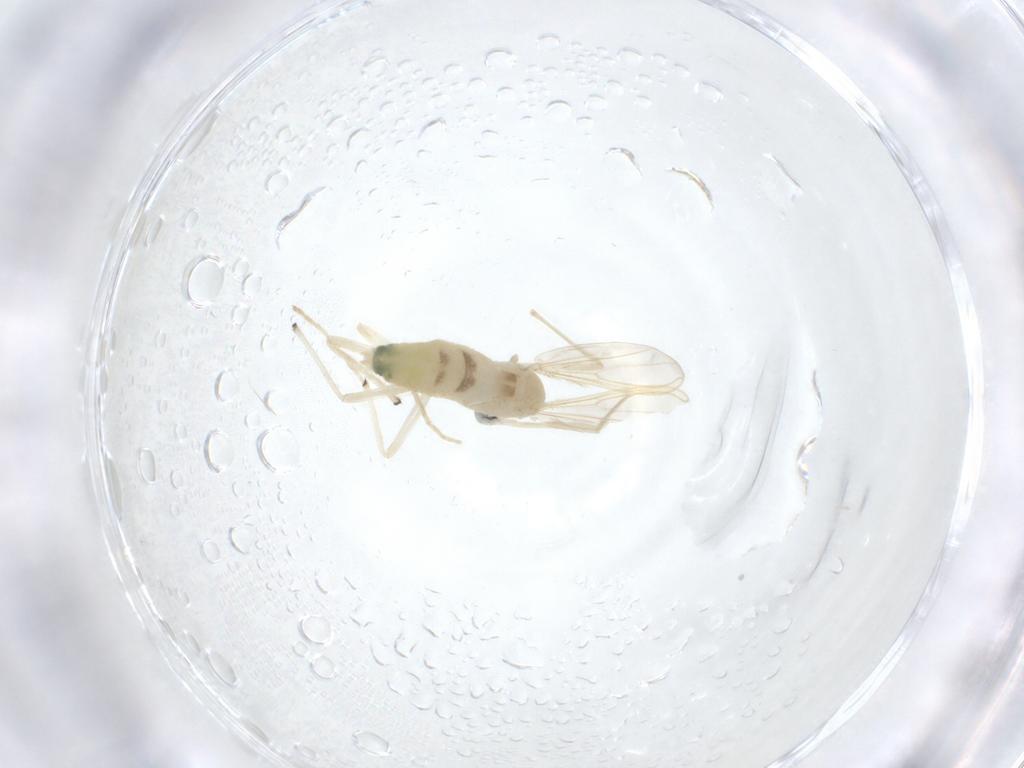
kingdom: Animalia
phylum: Arthropoda
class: Insecta
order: Diptera
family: Chironomidae
